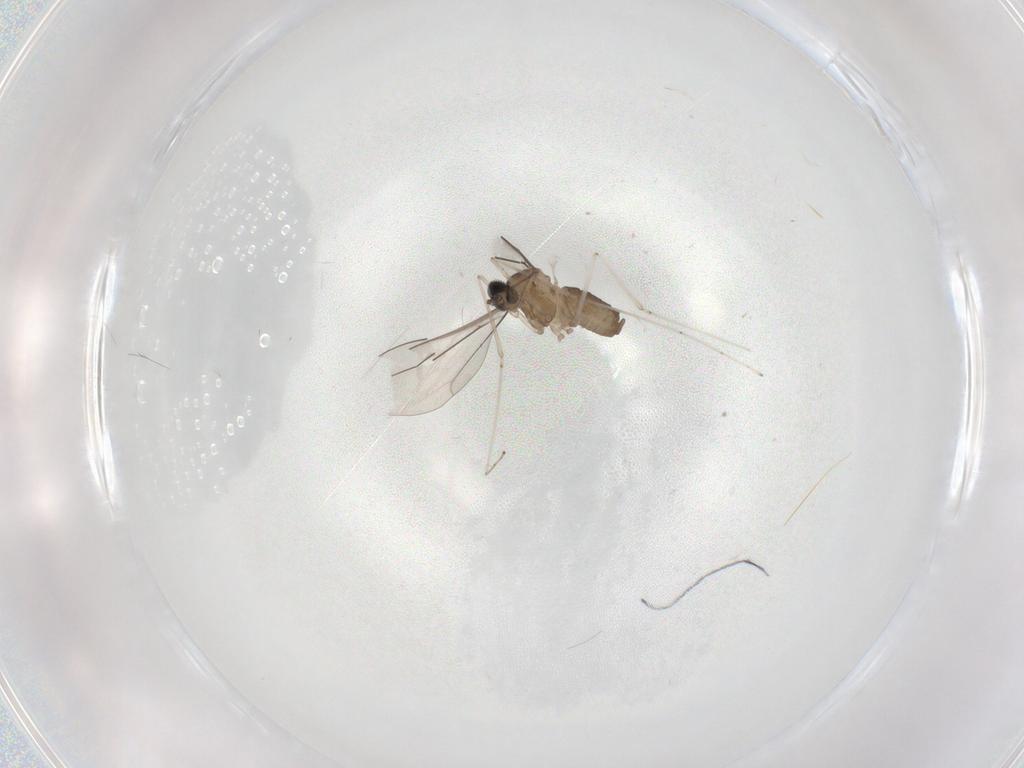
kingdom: Animalia
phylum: Arthropoda
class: Insecta
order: Diptera
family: Cecidomyiidae
